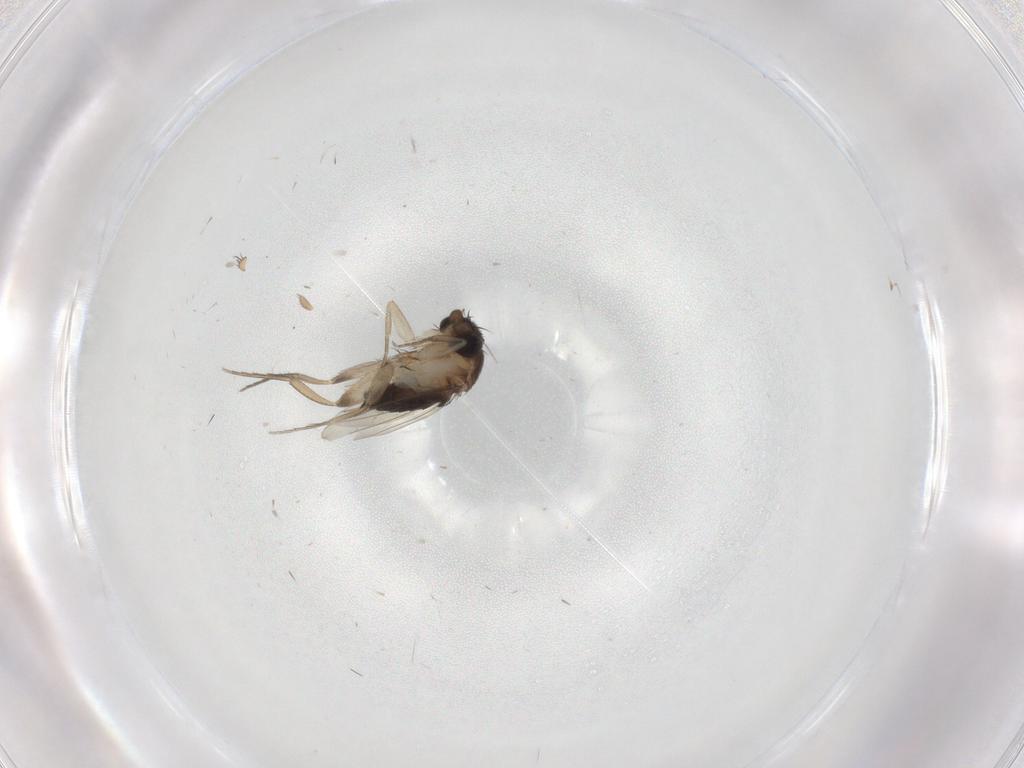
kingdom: Animalia
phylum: Arthropoda
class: Insecta
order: Diptera
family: Phoridae
